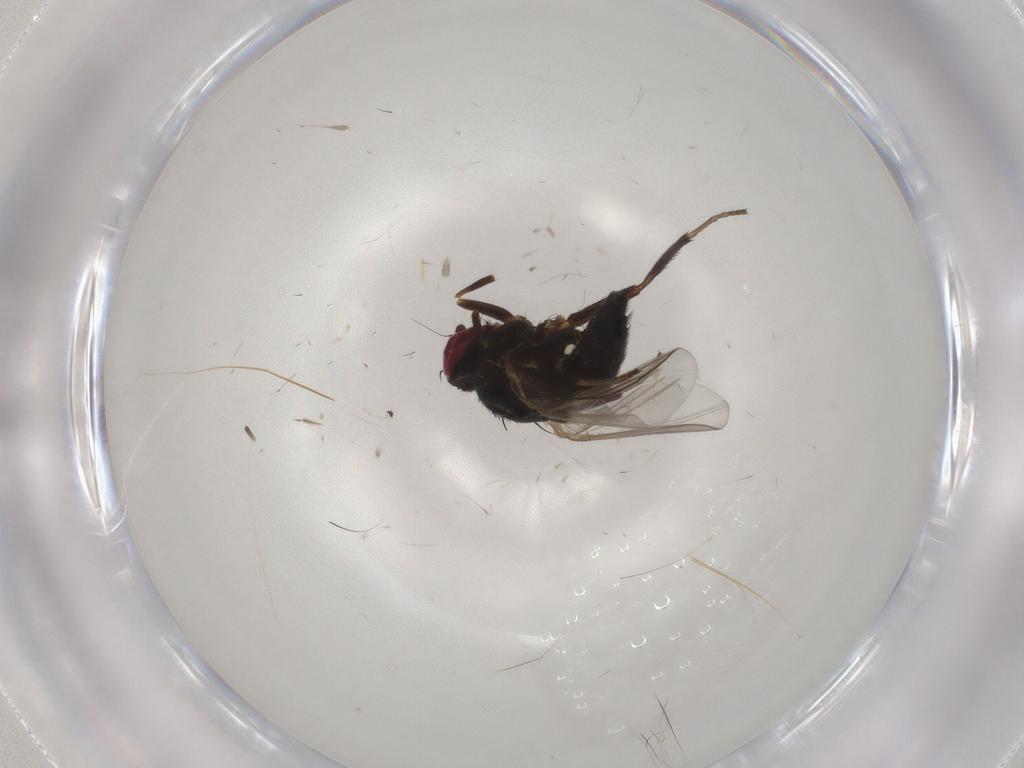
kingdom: Animalia
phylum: Arthropoda
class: Insecta
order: Diptera
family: Agromyzidae
